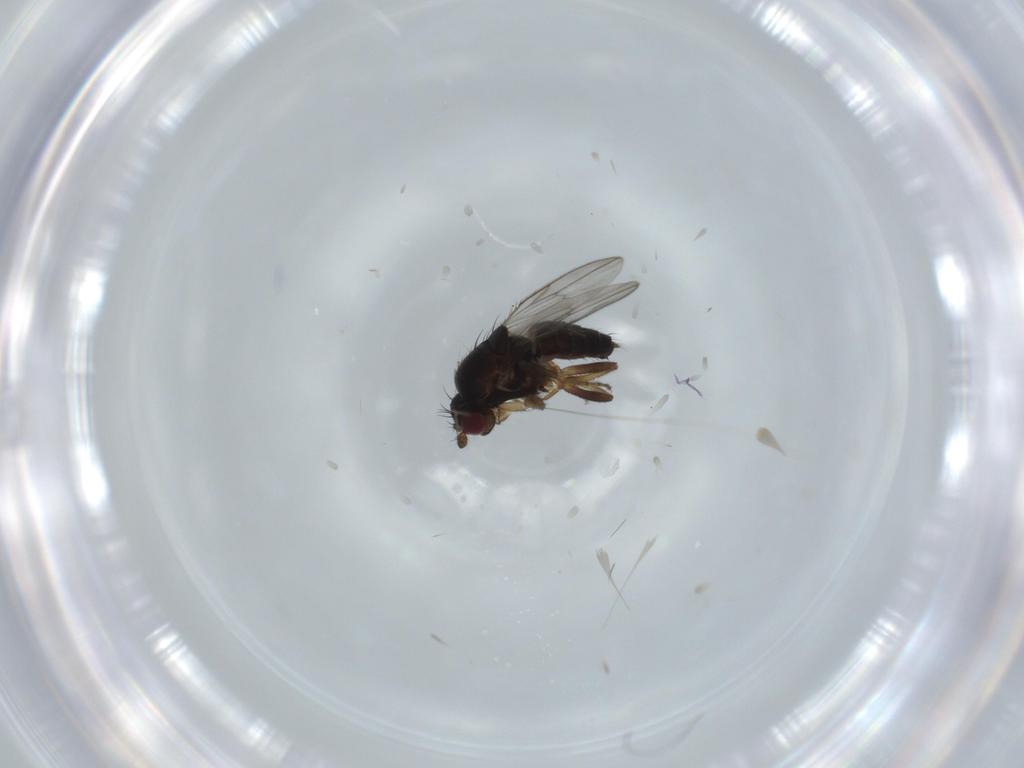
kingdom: Animalia
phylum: Arthropoda
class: Insecta
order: Diptera
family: Sphaeroceridae
